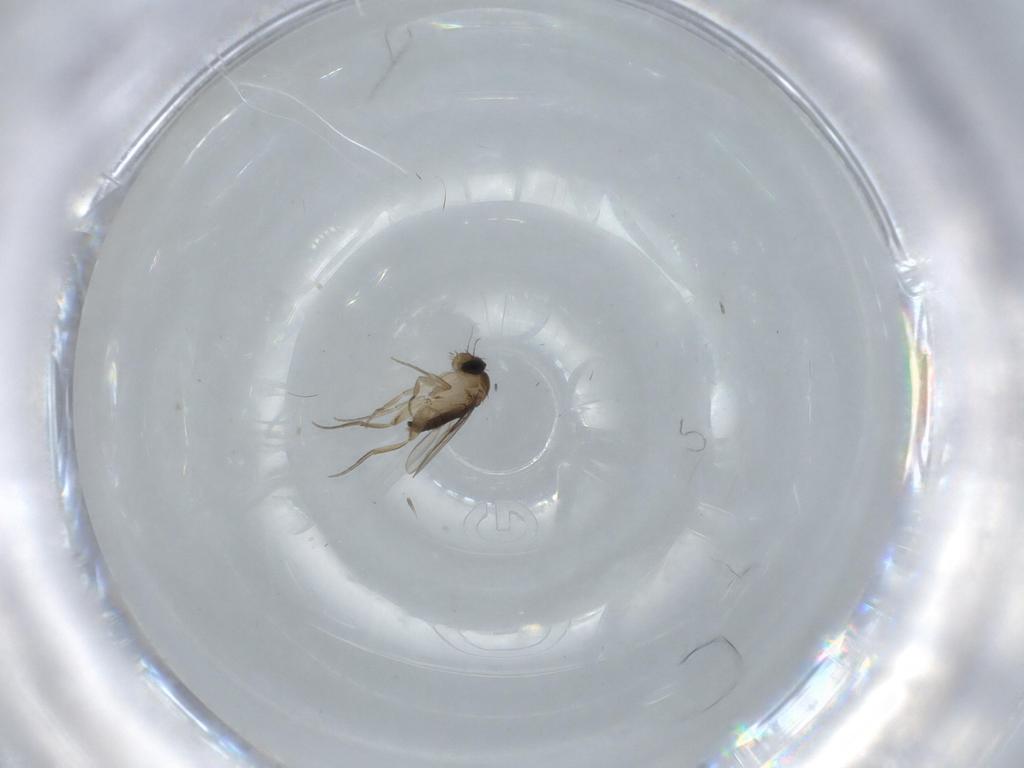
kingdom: Animalia
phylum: Arthropoda
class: Insecta
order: Diptera
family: Phoridae
